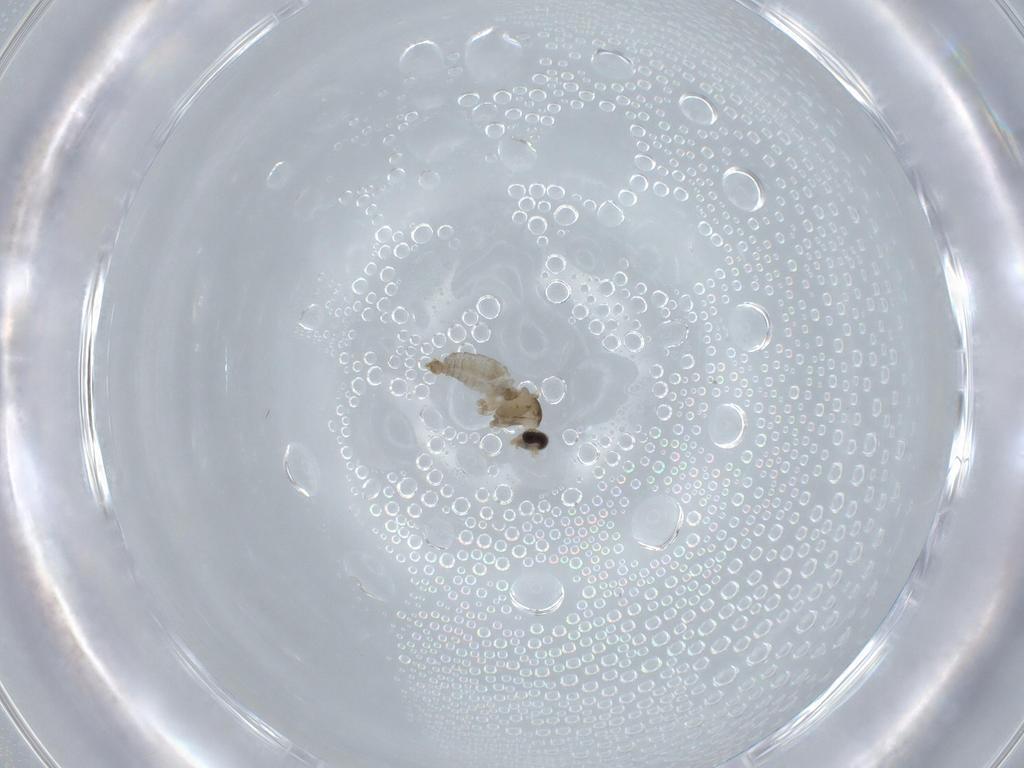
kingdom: Animalia
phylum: Arthropoda
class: Insecta
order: Diptera
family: Cecidomyiidae
